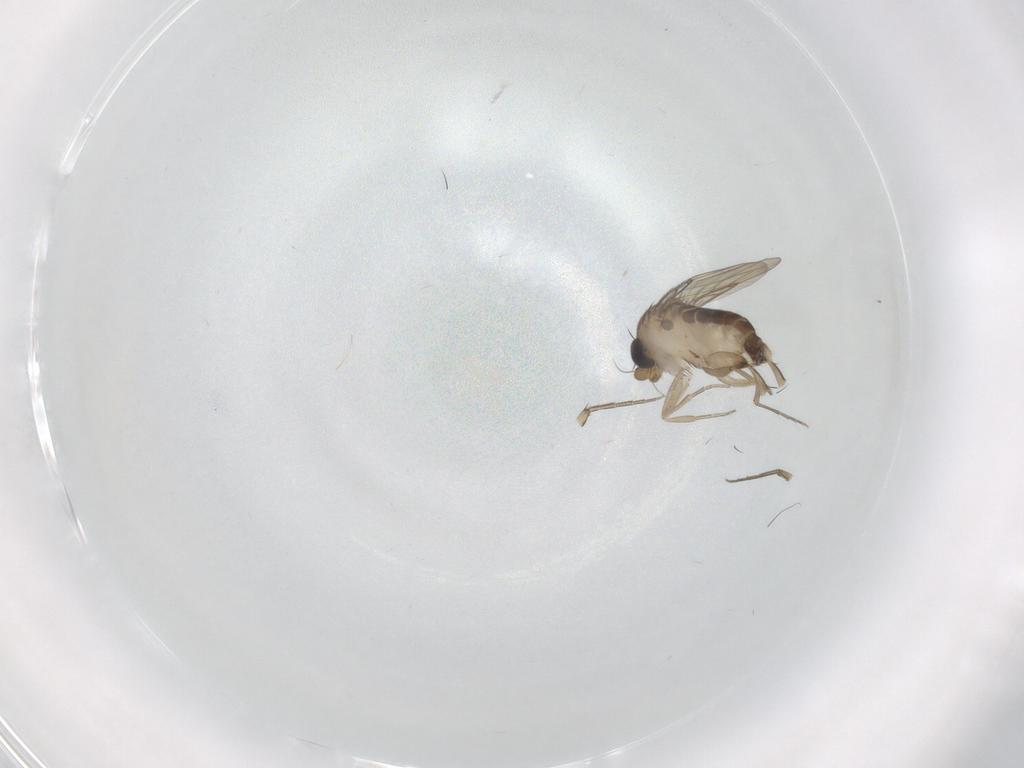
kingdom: Animalia
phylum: Arthropoda
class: Insecta
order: Diptera
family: Phoridae
